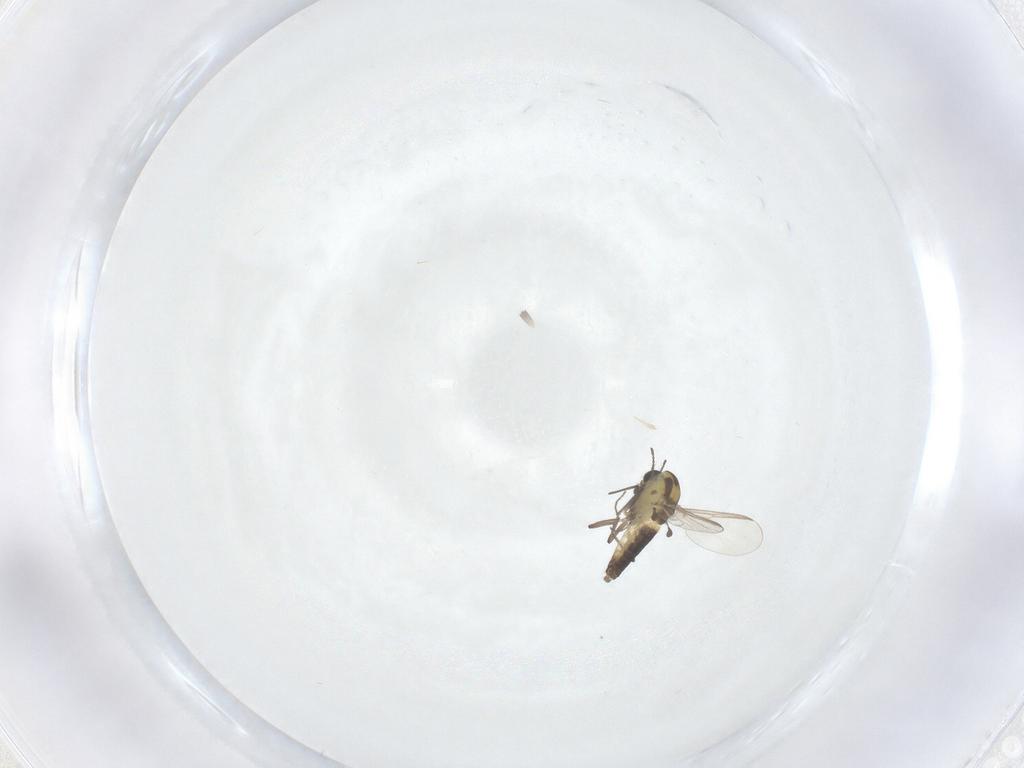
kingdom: Animalia
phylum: Arthropoda
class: Insecta
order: Diptera
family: Chironomidae
